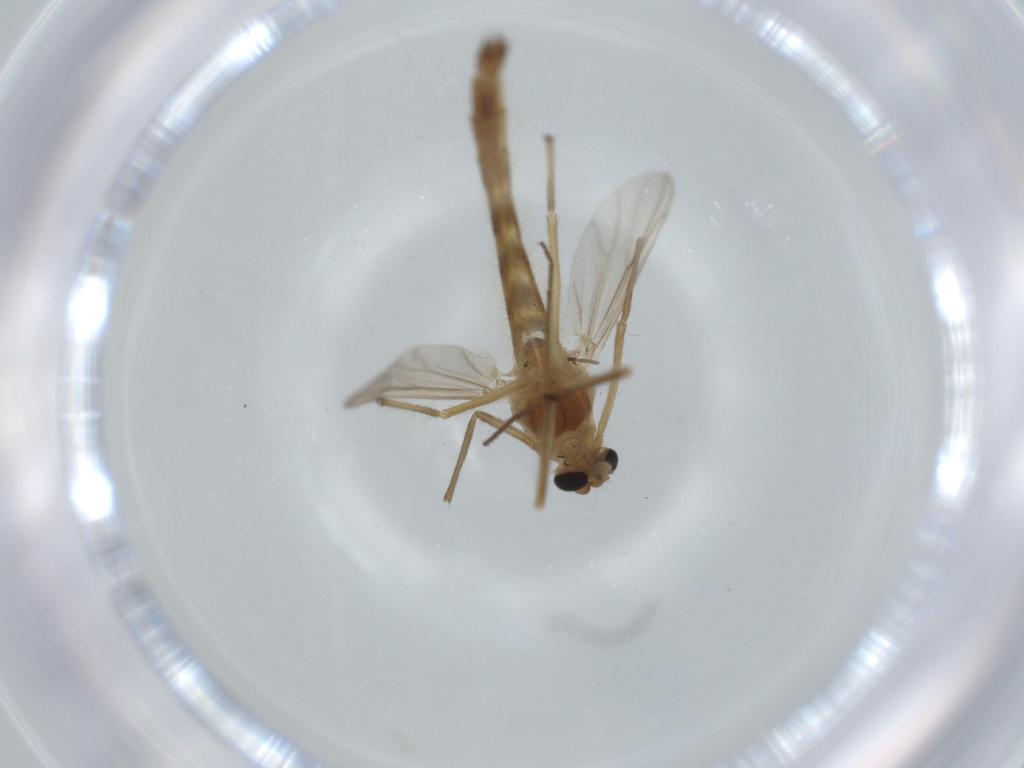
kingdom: Animalia
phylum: Arthropoda
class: Insecta
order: Diptera
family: Chironomidae
